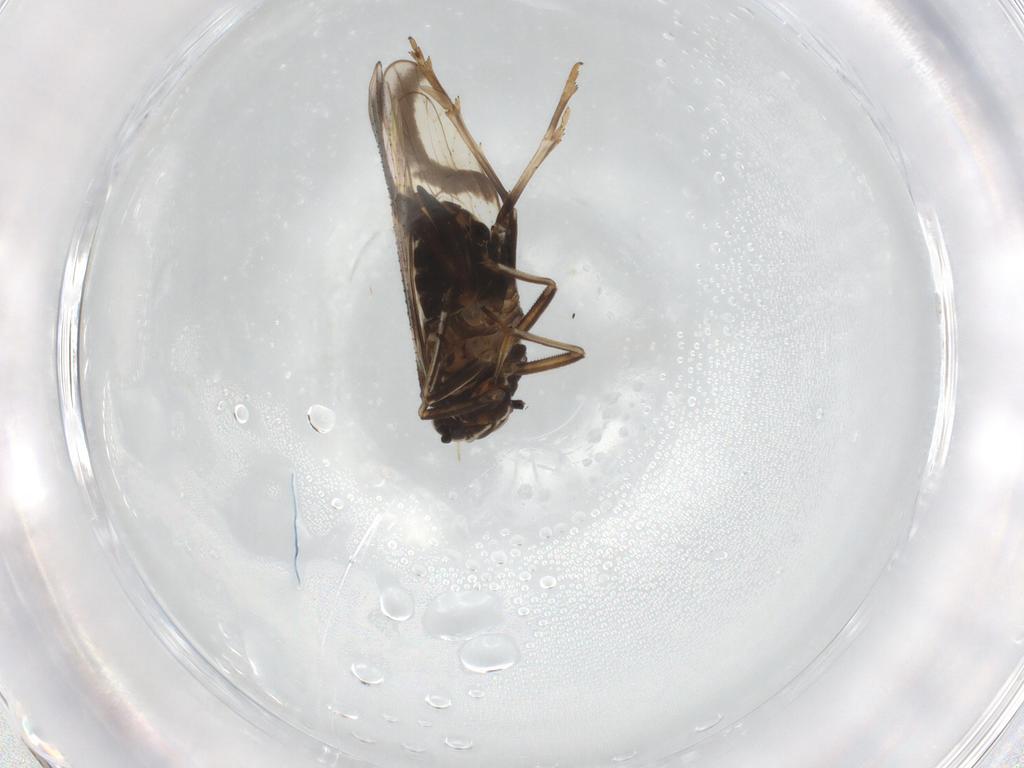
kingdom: Animalia
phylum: Arthropoda
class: Insecta
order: Hemiptera
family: Delphacidae
